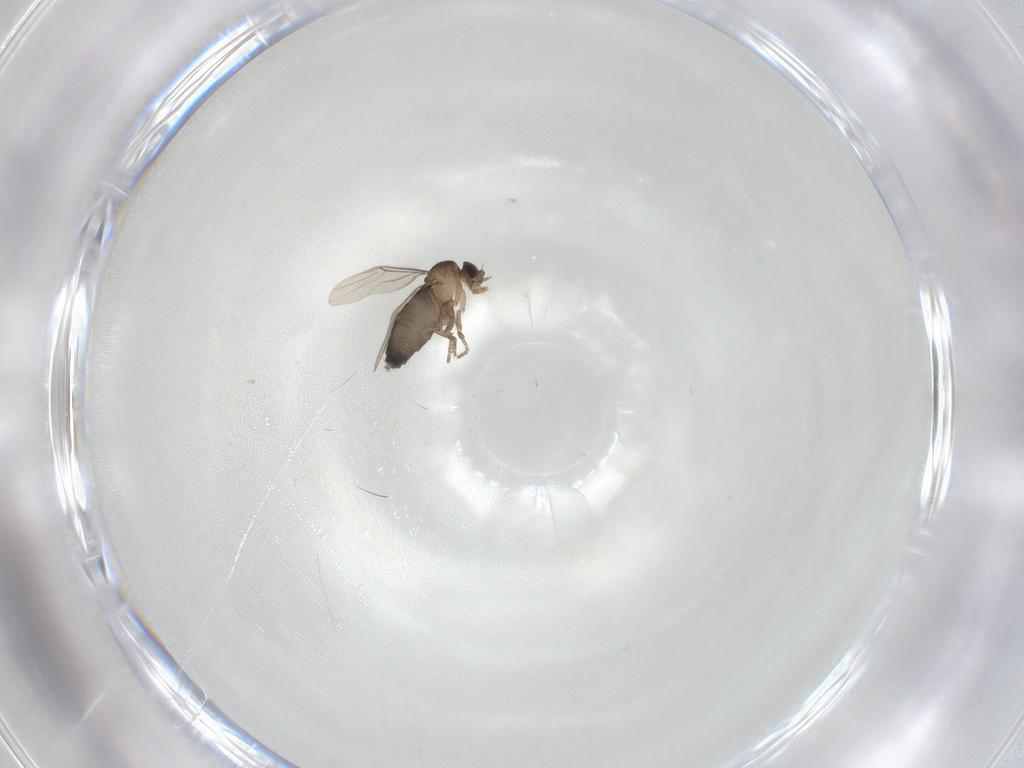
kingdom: Animalia
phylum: Arthropoda
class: Insecta
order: Diptera
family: Phoridae
